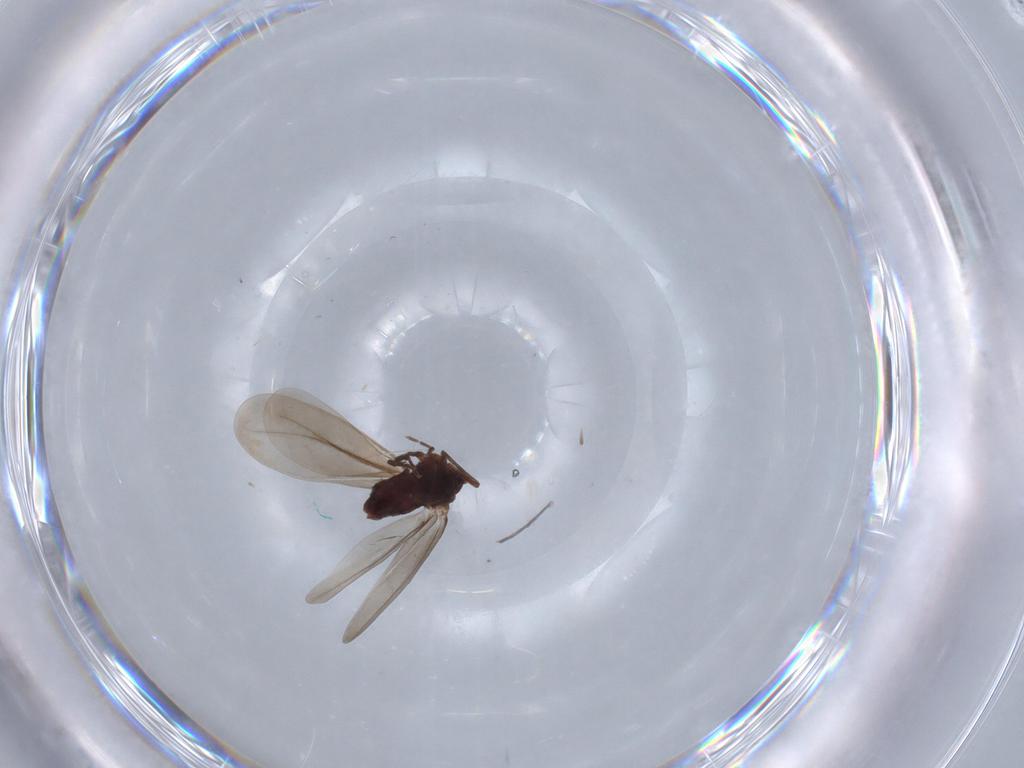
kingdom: Animalia
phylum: Arthropoda
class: Insecta
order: Hemiptera
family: Aleyrodidae
